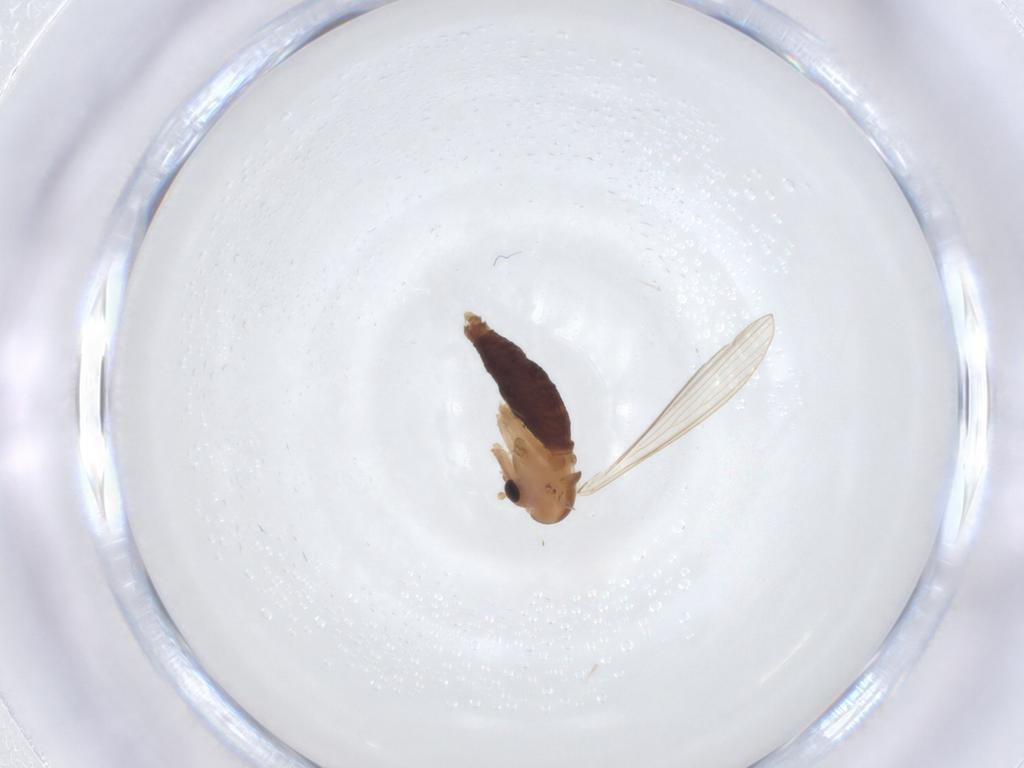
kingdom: Animalia
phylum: Arthropoda
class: Insecta
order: Diptera
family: Psychodidae
